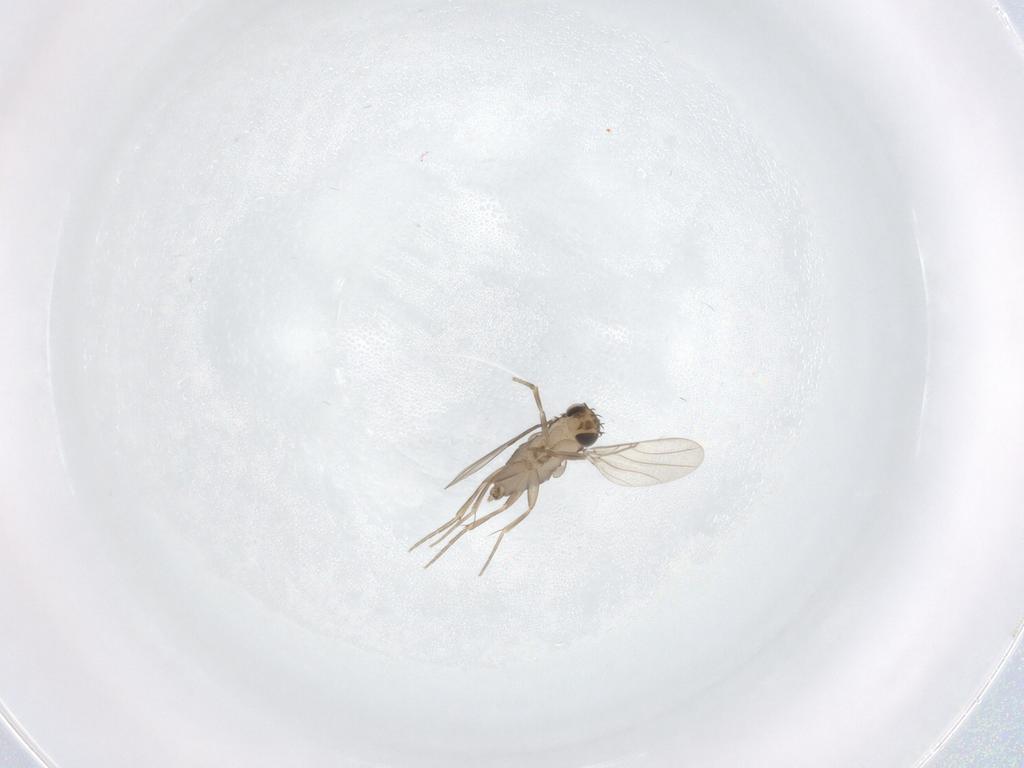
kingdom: Animalia
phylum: Arthropoda
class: Insecta
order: Diptera
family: Phoridae
